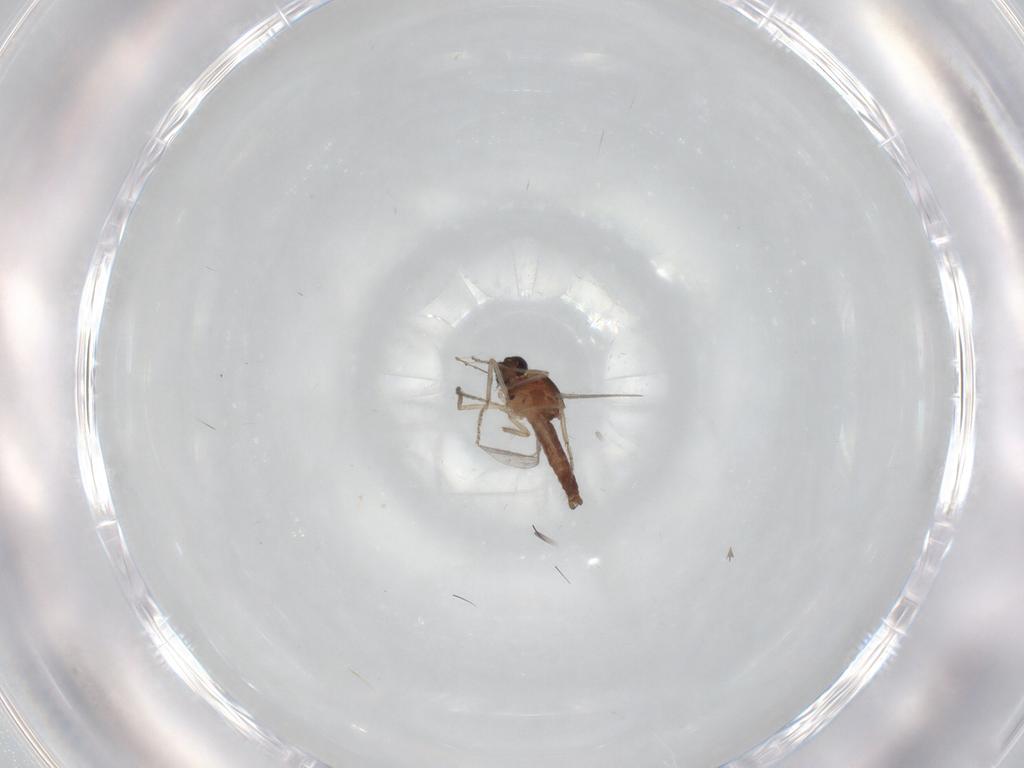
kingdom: Animalia
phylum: Arthropoda
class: Insecta
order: Diptera
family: Ceratopogonidae
